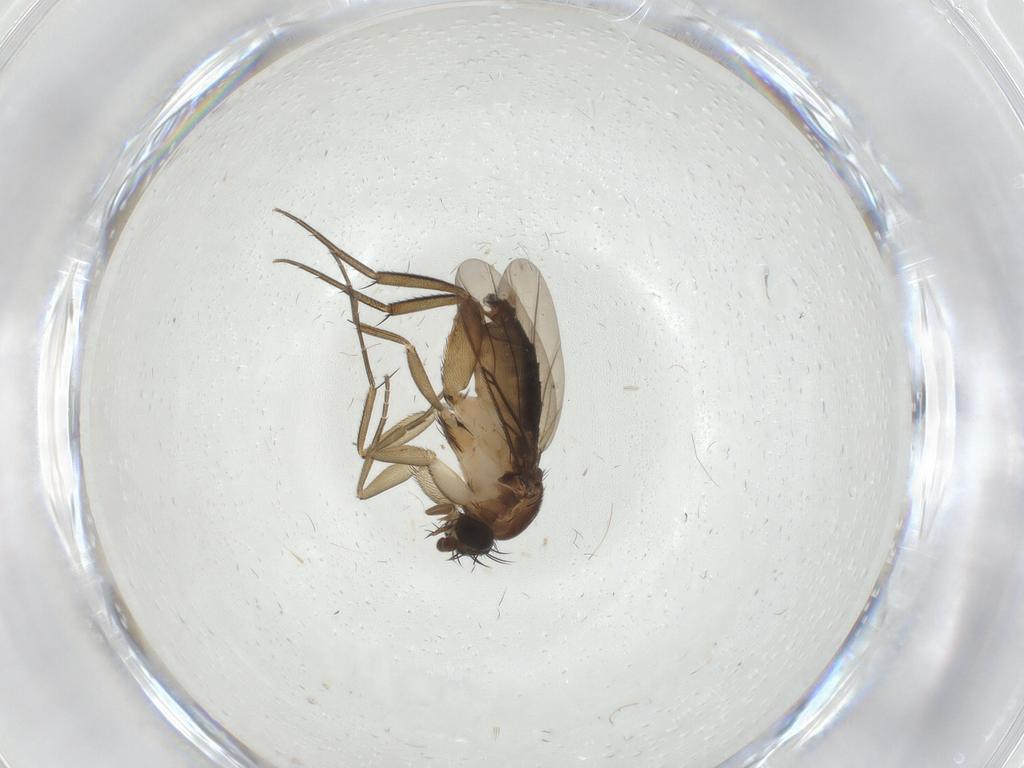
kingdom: Animalia
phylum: Arthropoda
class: Insecta
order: Diptera
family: Phoridae
